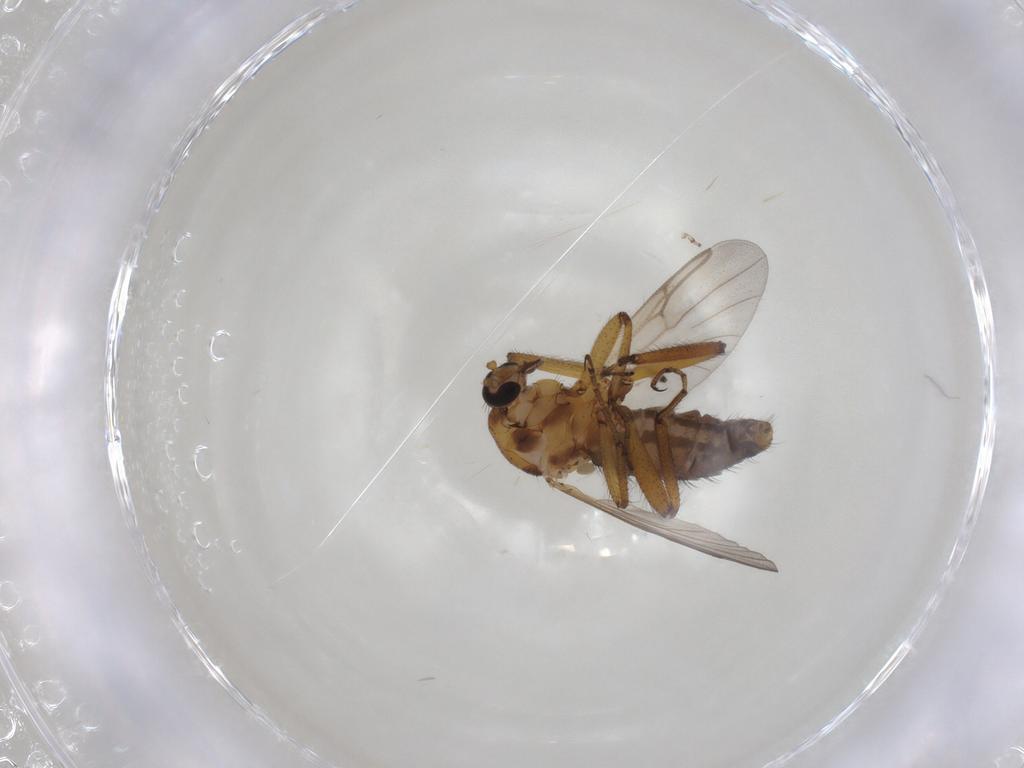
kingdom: Animalia
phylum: Arthropoda
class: Insecta
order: Diptera
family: Ceratopogonidae
